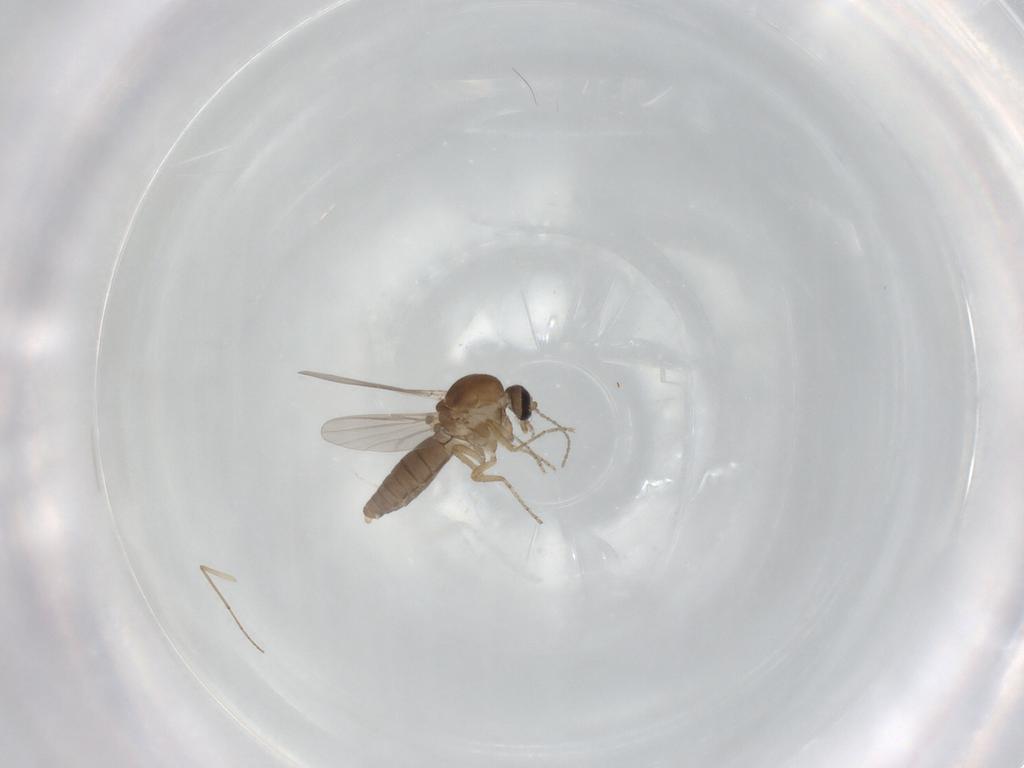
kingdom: Animalia
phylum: Arthropoda
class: Insecta
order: Diptera
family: Ceratopogonidae
